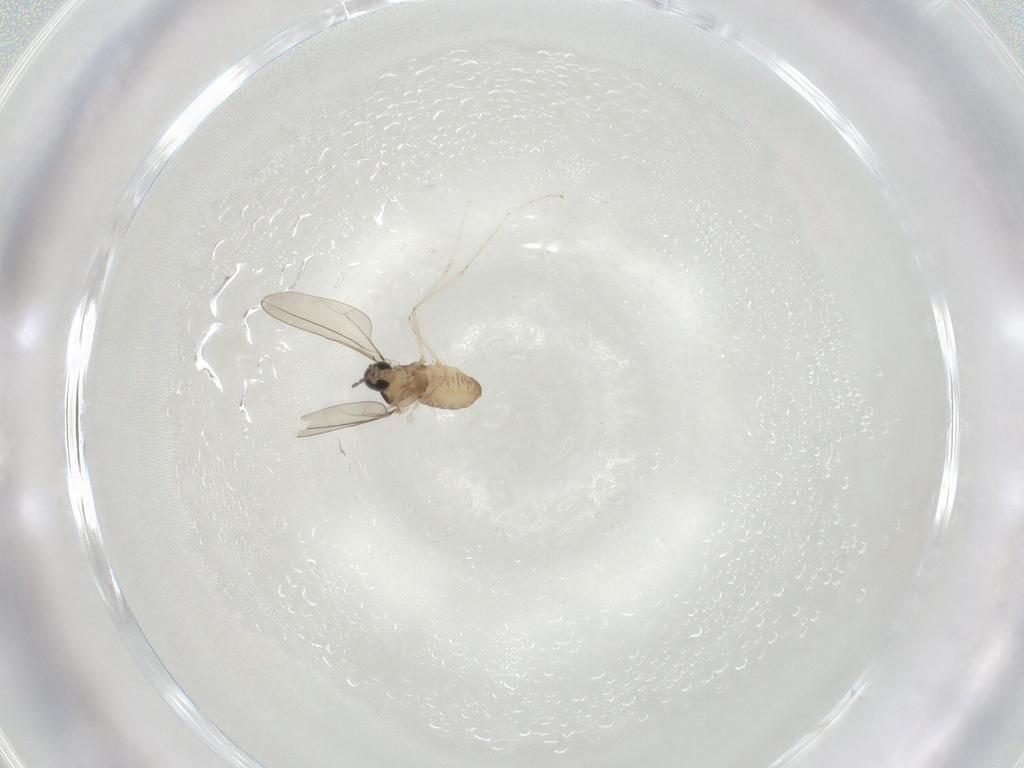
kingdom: Animalia
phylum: Arthropoda
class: Insecta
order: Diptera
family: Cecidomyiidae
